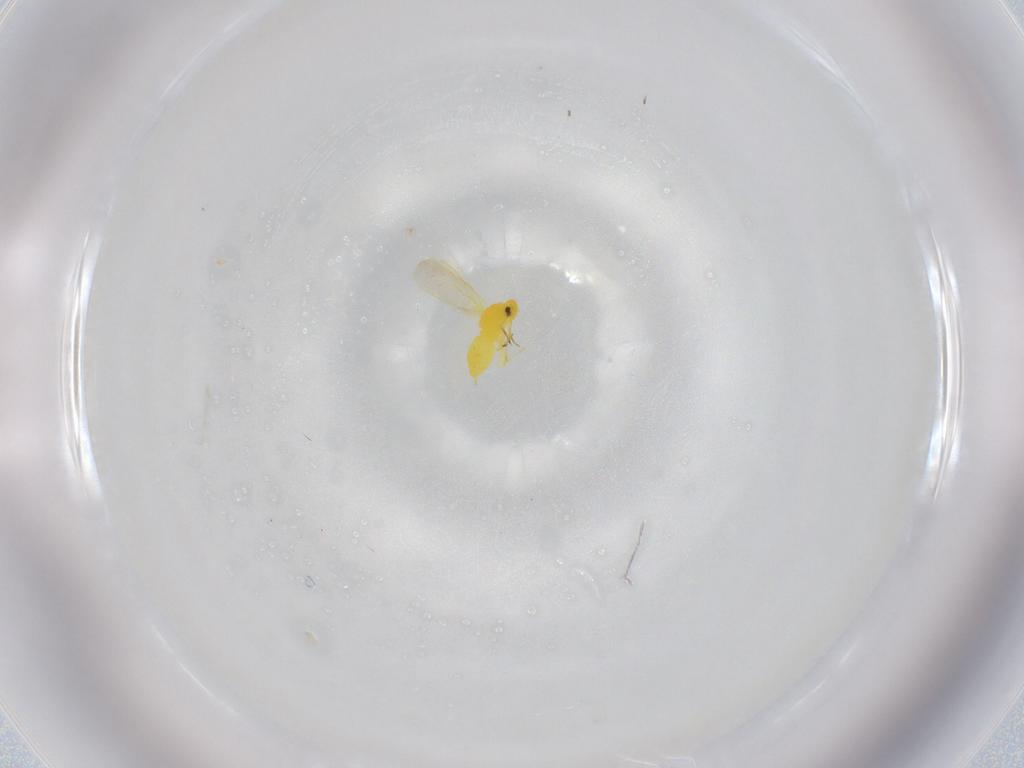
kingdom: Animalia
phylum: Arthropoda
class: Insecta
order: Hemiptera
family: Aleyrodidae
